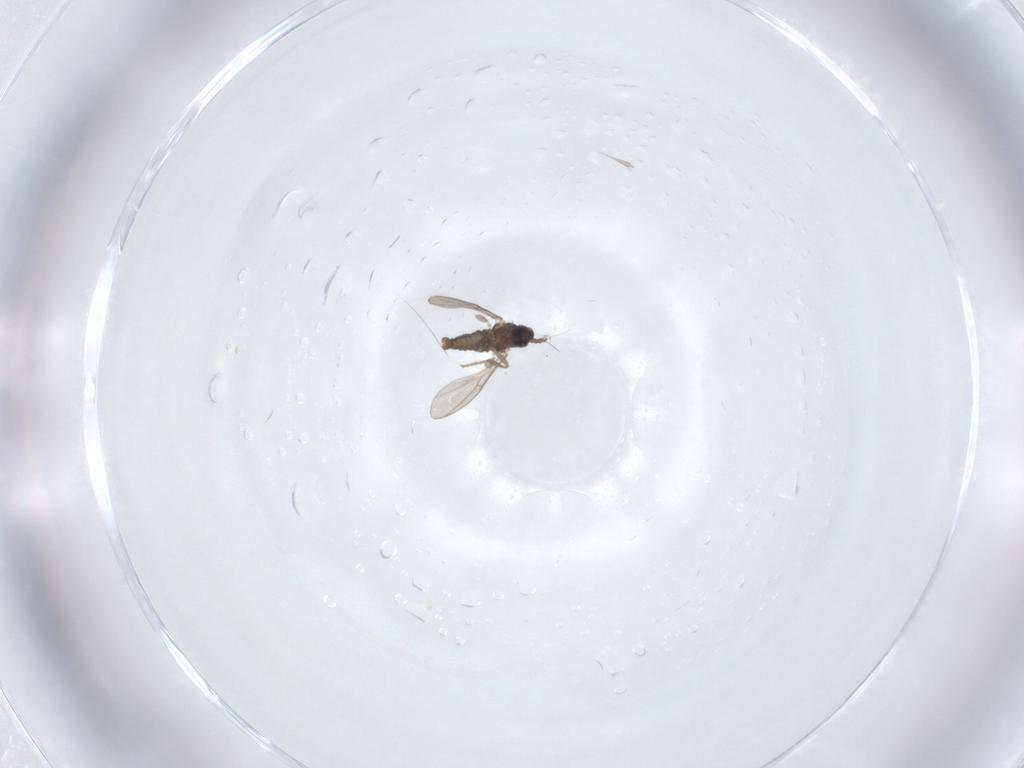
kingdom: Animalia
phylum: Arthropoda
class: Insecta
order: Diptera
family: Cecidomyiidae
